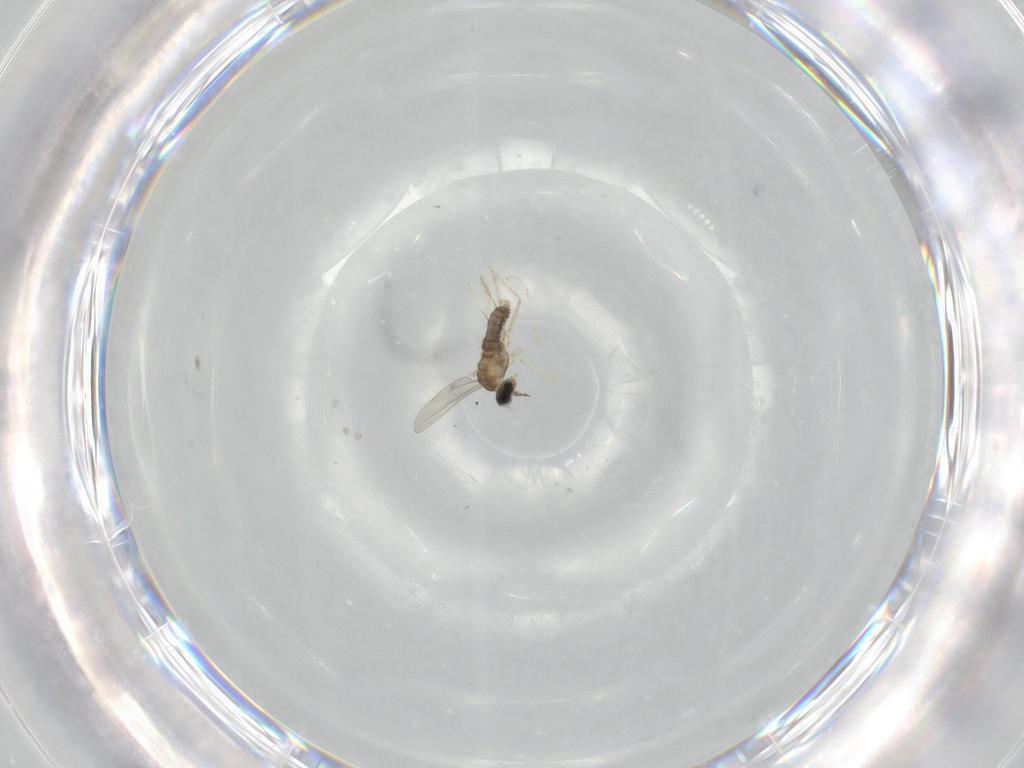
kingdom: Animalia
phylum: Arthropoda
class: Insecta
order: Diptera
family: Cecidomyiidae
